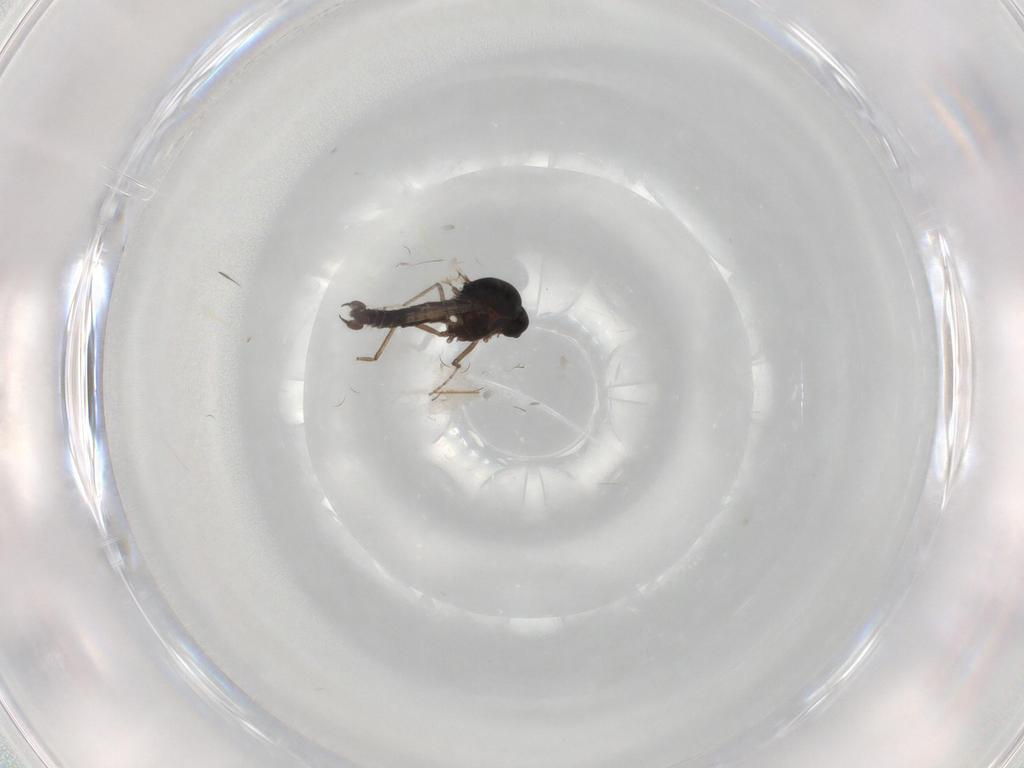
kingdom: Animalia
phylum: Arthropoda
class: Insecta
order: Diptera
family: Ceratopogonidae
